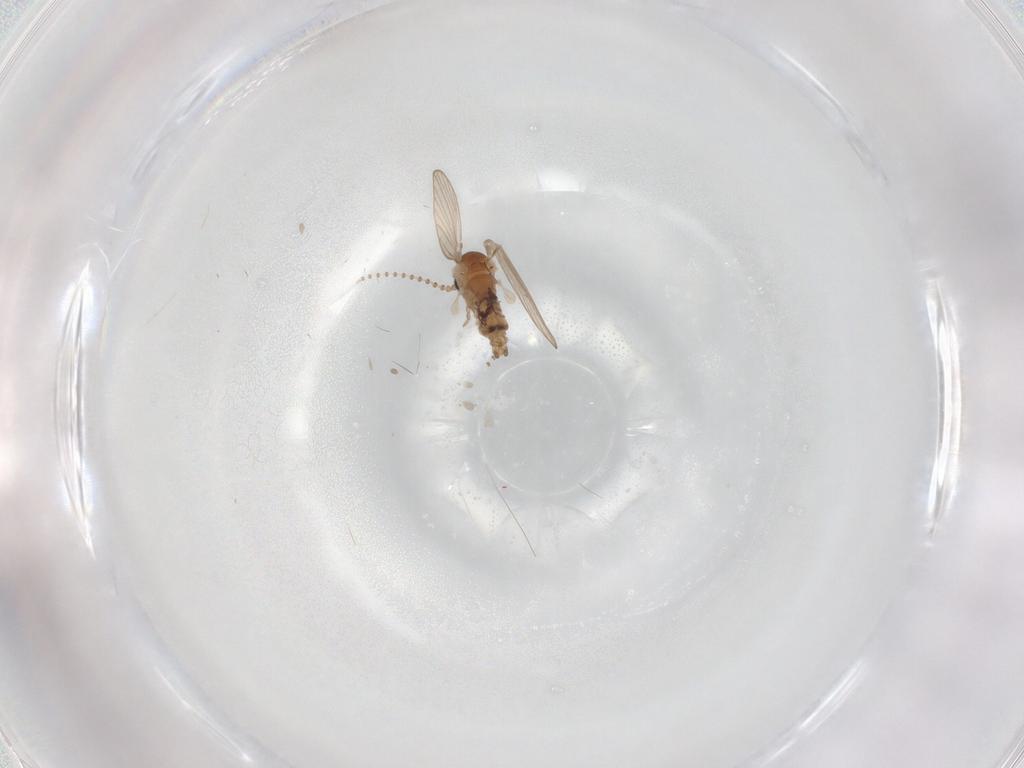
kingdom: Animalia
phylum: Arthropoda
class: Insecta
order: Diptera
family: Psychodidae
